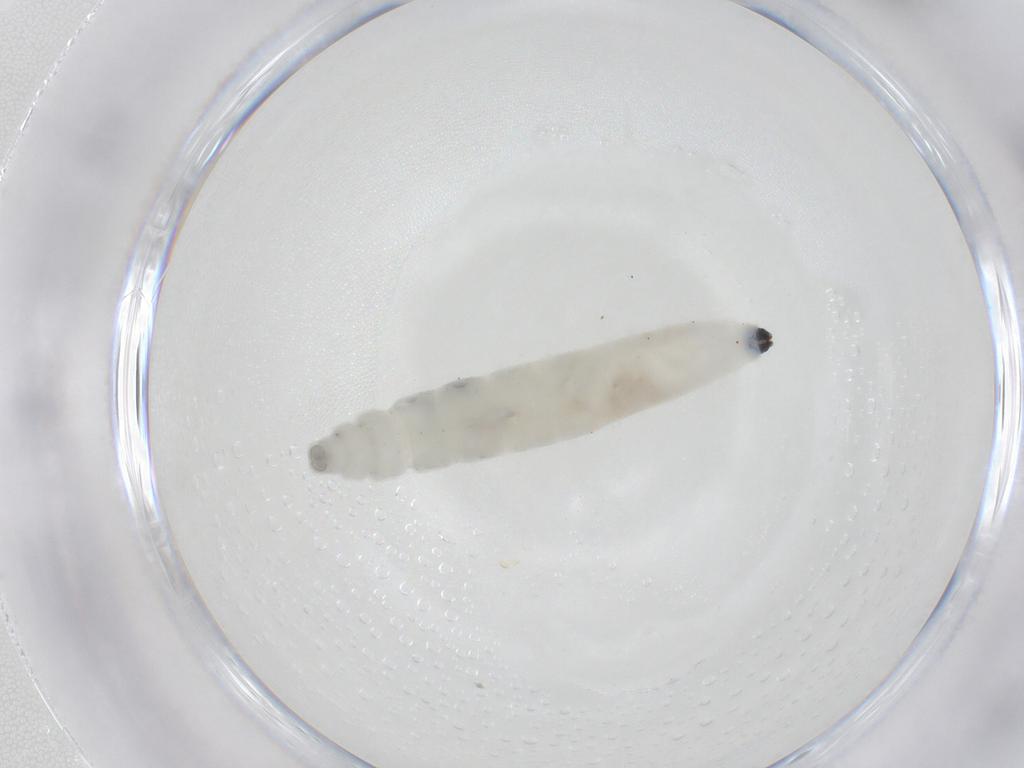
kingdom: Animalia
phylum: Arthropoda
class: Insecta
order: Diptera
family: Sciaridae
